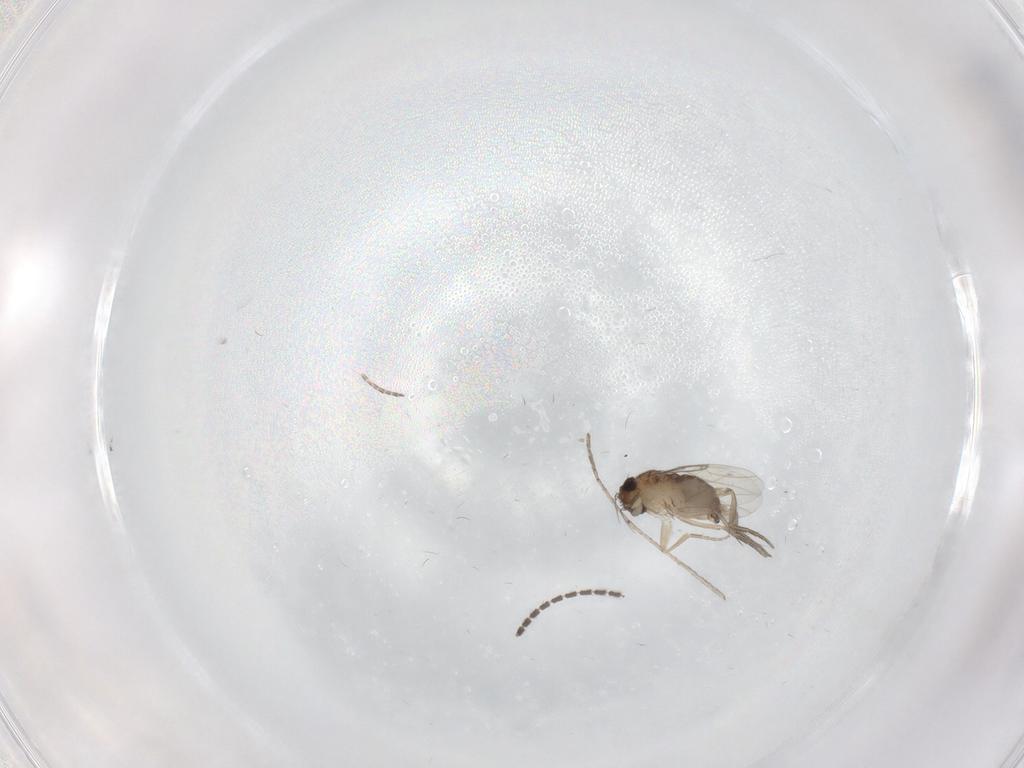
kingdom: Animalia
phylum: Arthropoda
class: Insecta
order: Diptera
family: Phoridae
